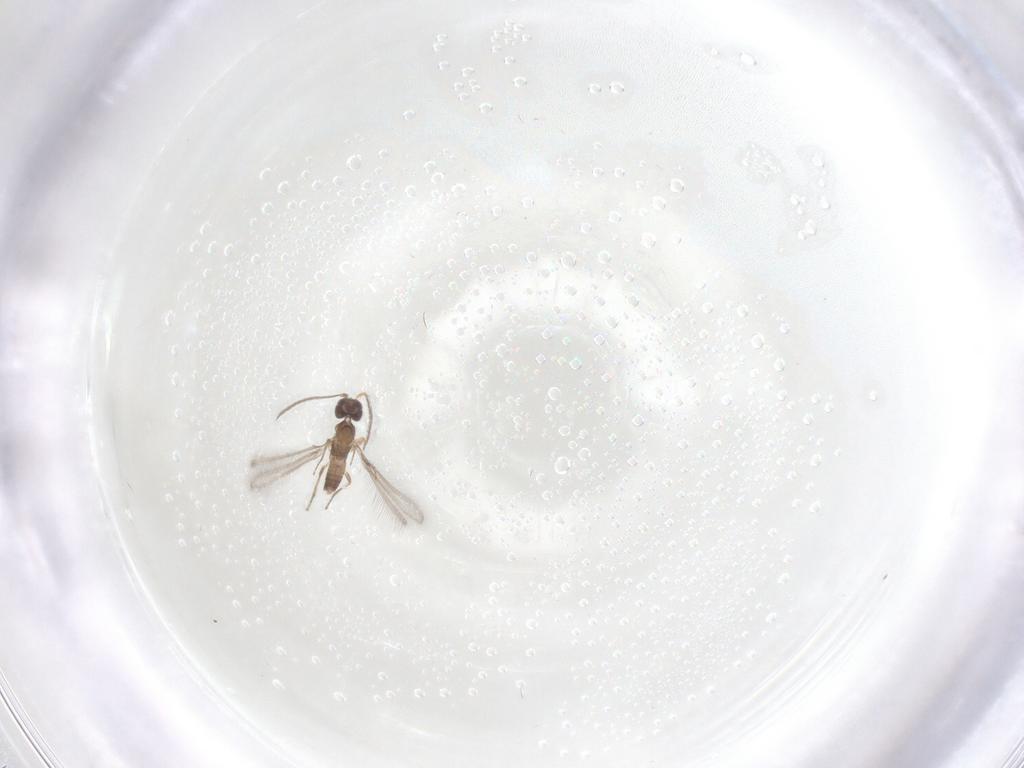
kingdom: Animalia
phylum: Arthropoda
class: Insecta
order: Hymenoptera
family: Mymaridae
